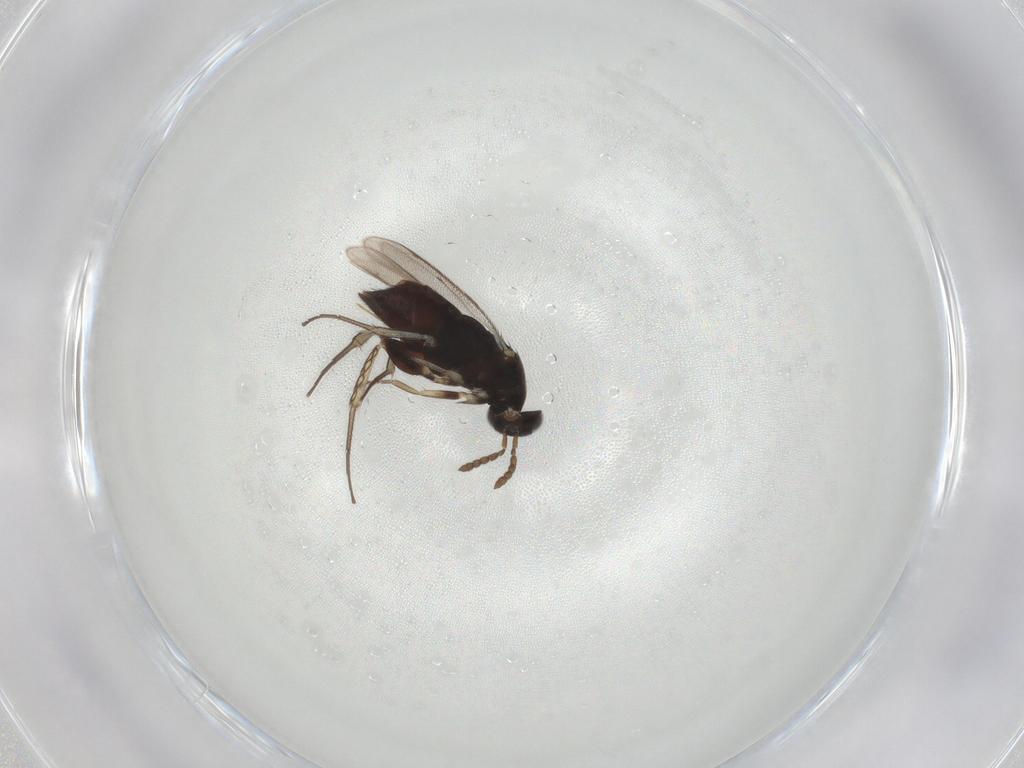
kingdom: Animalia
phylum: Arthropoda
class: Insecta
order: Hymenoptera
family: Eulophidae
